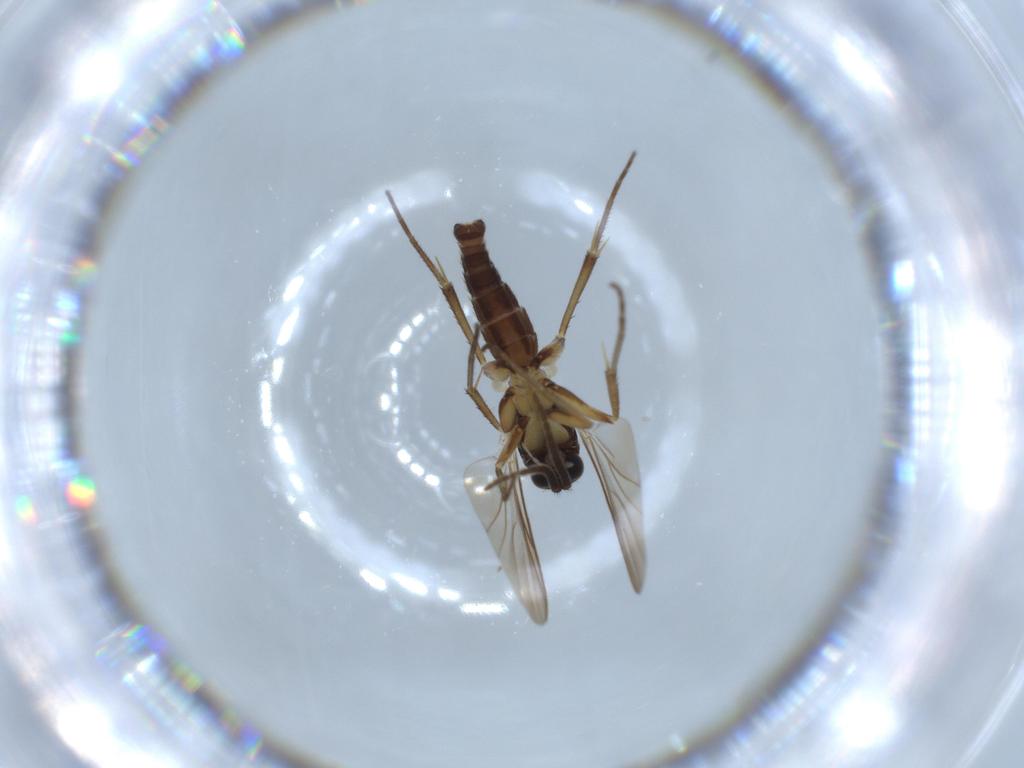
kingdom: Animalia
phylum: Arthropoda
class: Insecta
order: Diptera
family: Mycetophilidae
